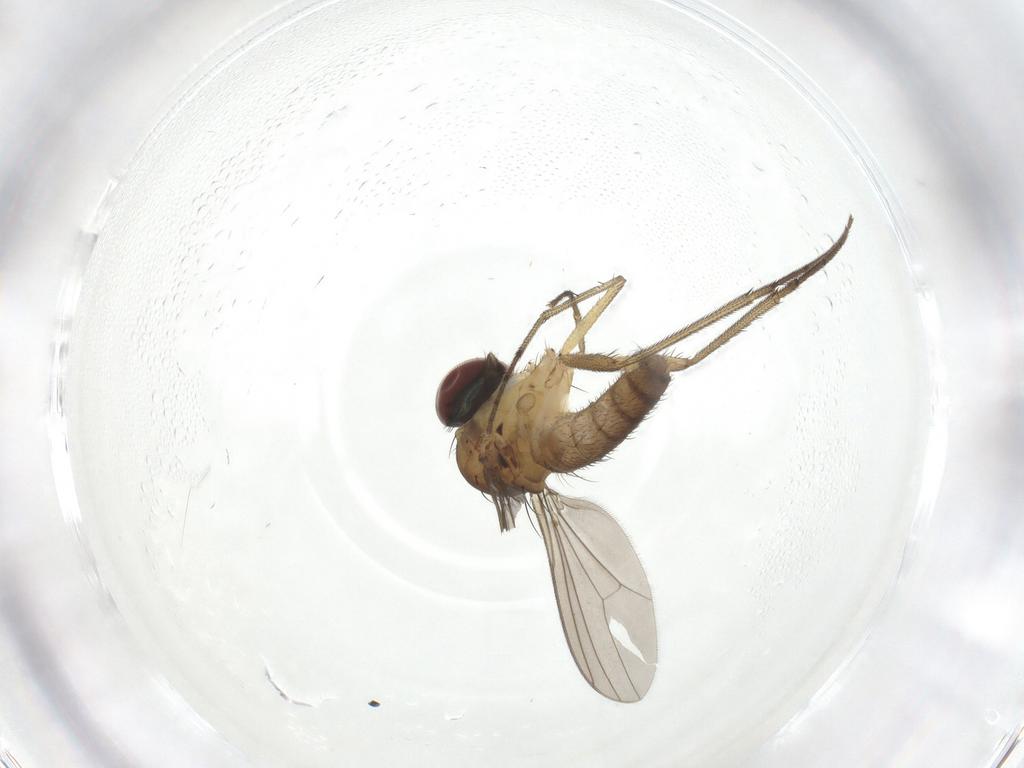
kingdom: Animalia
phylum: Arthropoda
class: Insecta
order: Diptera
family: Dolichopodidae
